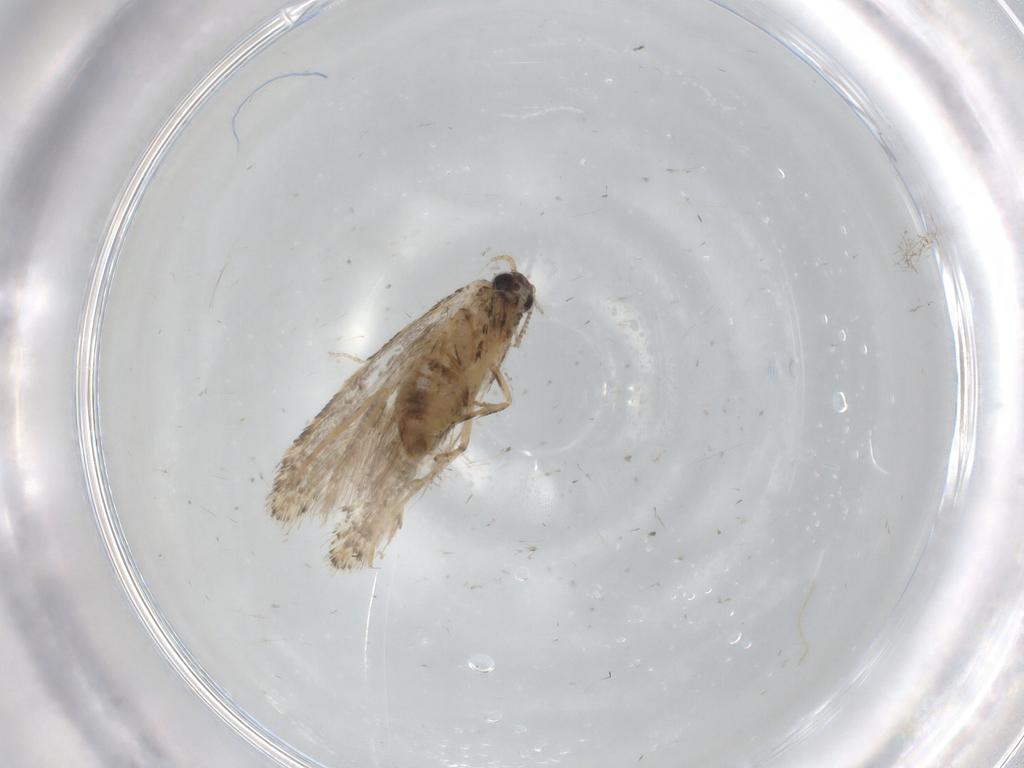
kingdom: Animalia
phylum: Arthropoda
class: Insecta
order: Lepidoptera
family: Tineidae
